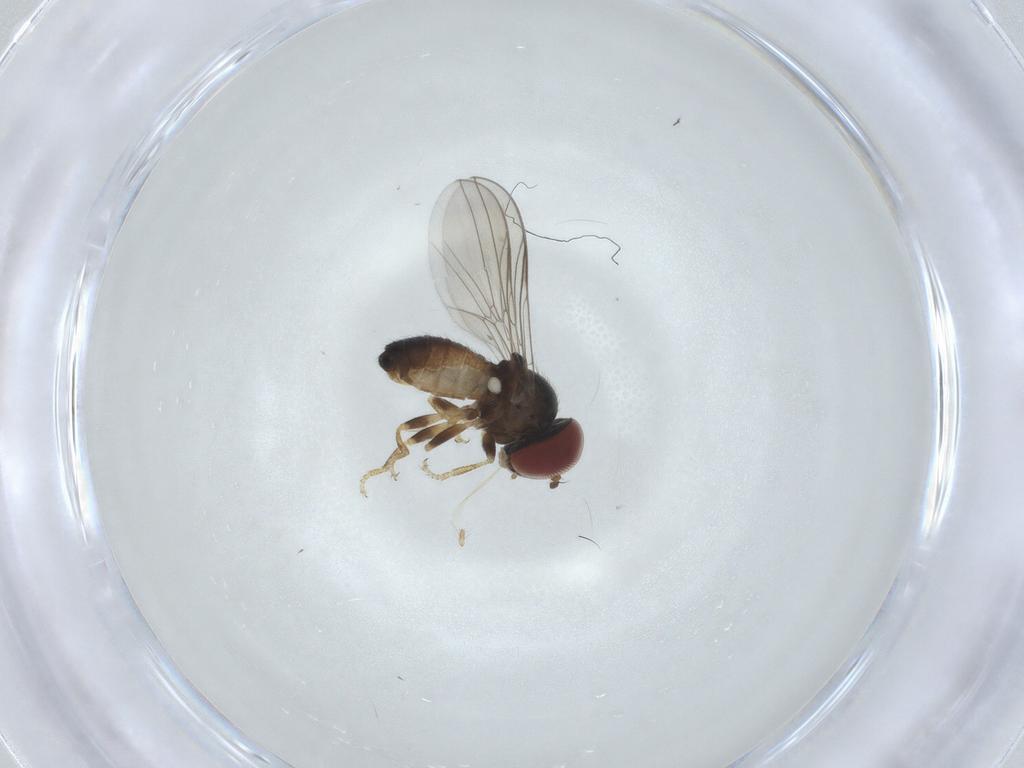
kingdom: Animalia
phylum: Arthropoda
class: Insecta
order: Diptera
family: Pipunculidae
